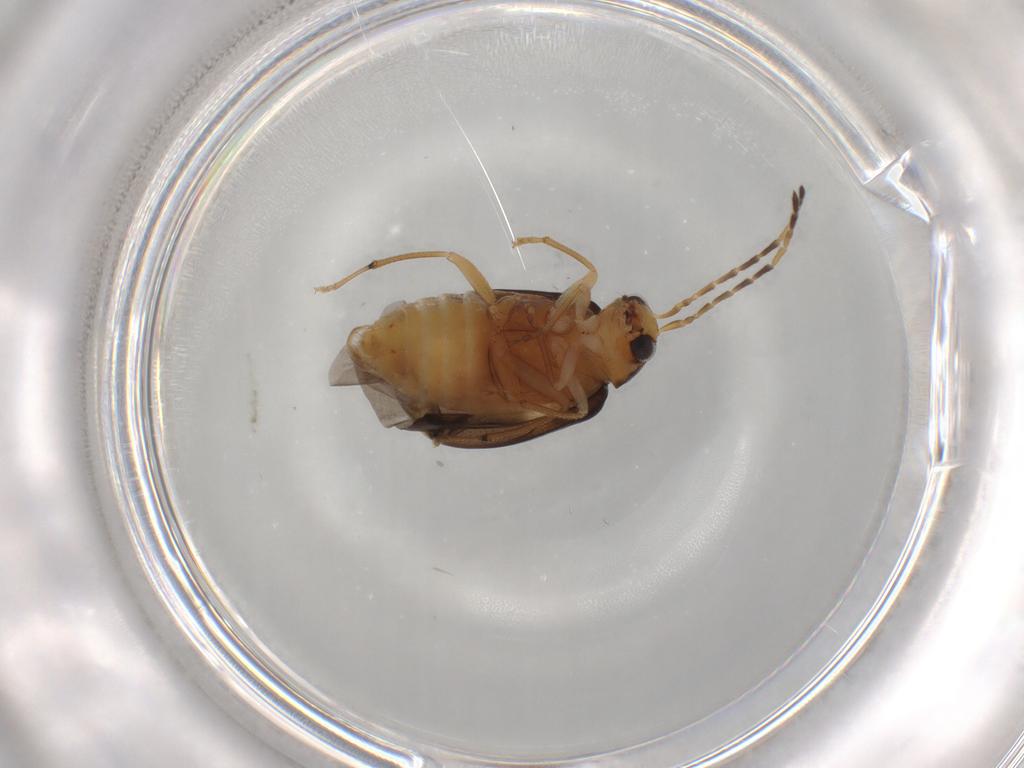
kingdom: Animalia
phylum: Arthropoda
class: Insecta
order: Coleoptera
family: Chrysomelidae
